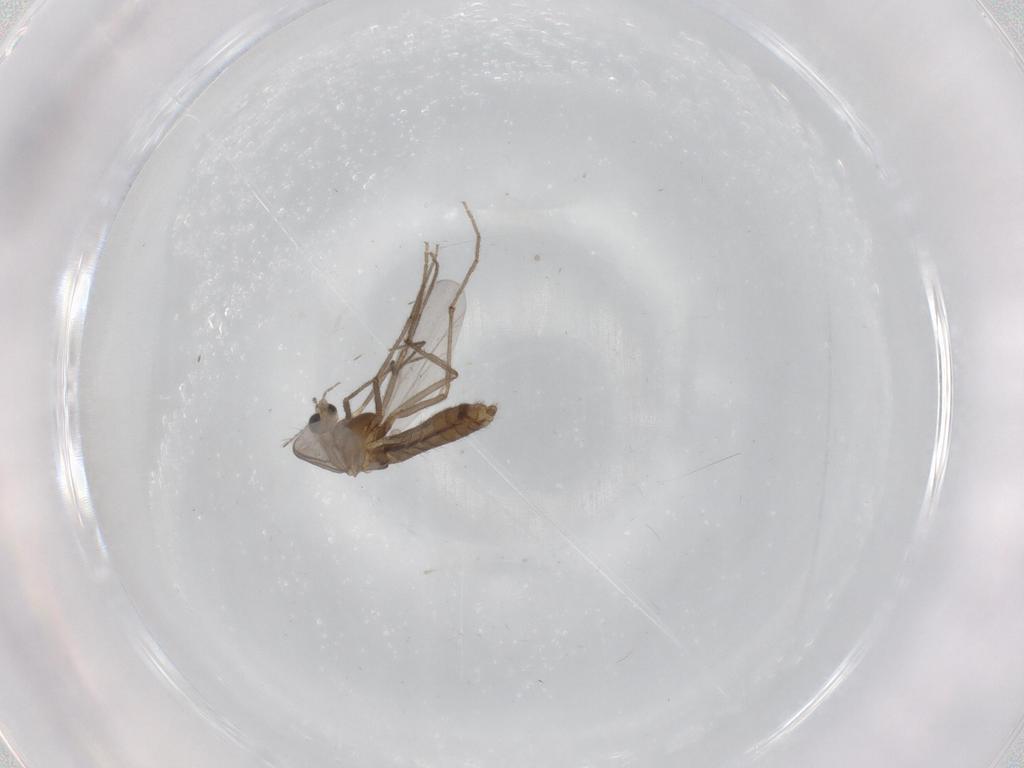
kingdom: Animalia
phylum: Arthropoda
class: Insecta
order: Diptera
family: Chironomidae
